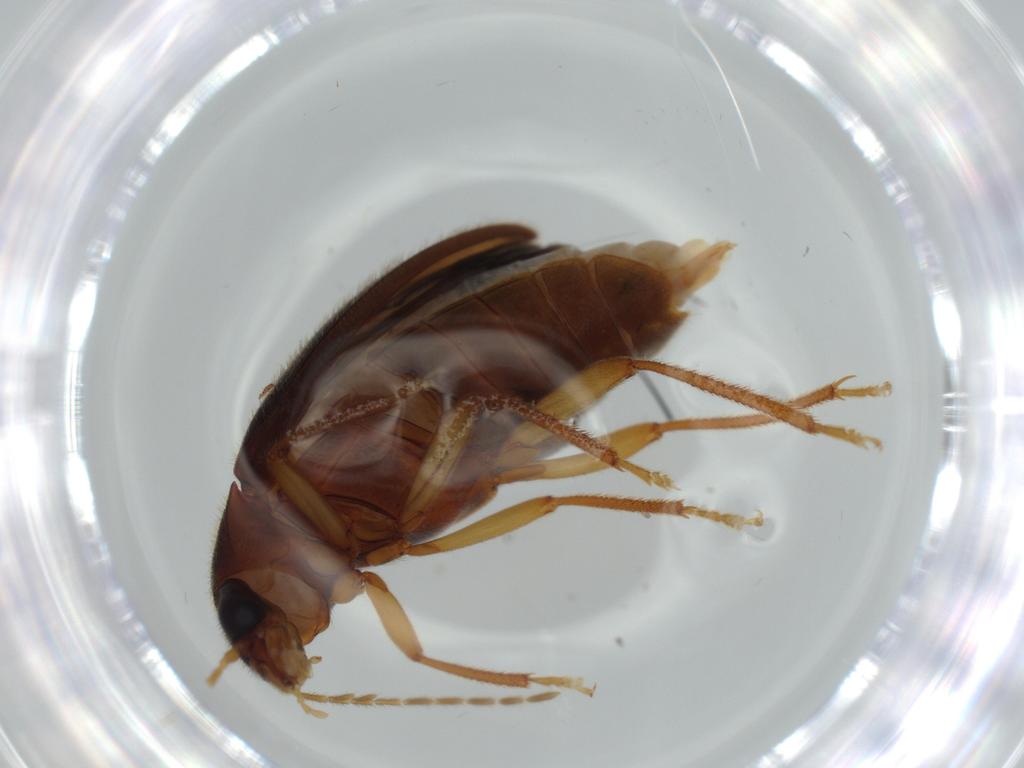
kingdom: Animalia
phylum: Arthropoda
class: Insecta
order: Coleoptera
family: Ptilodactylidae
